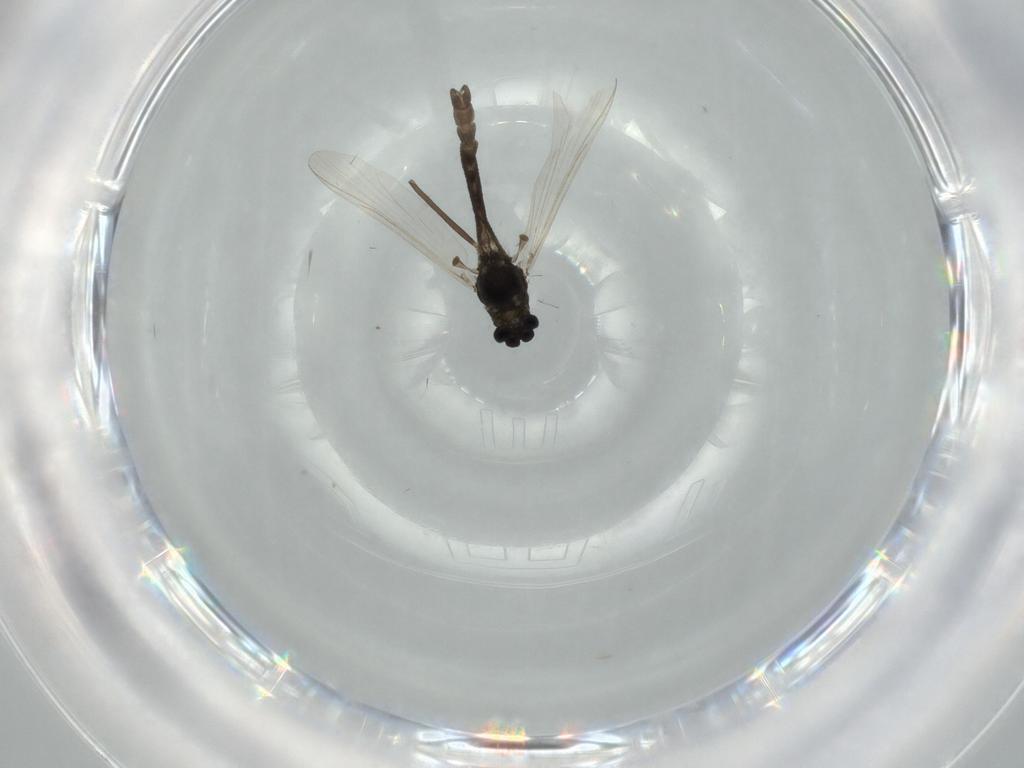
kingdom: Animalia
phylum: Arthropoda
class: Insecta
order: Diptera
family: Chironomidae
